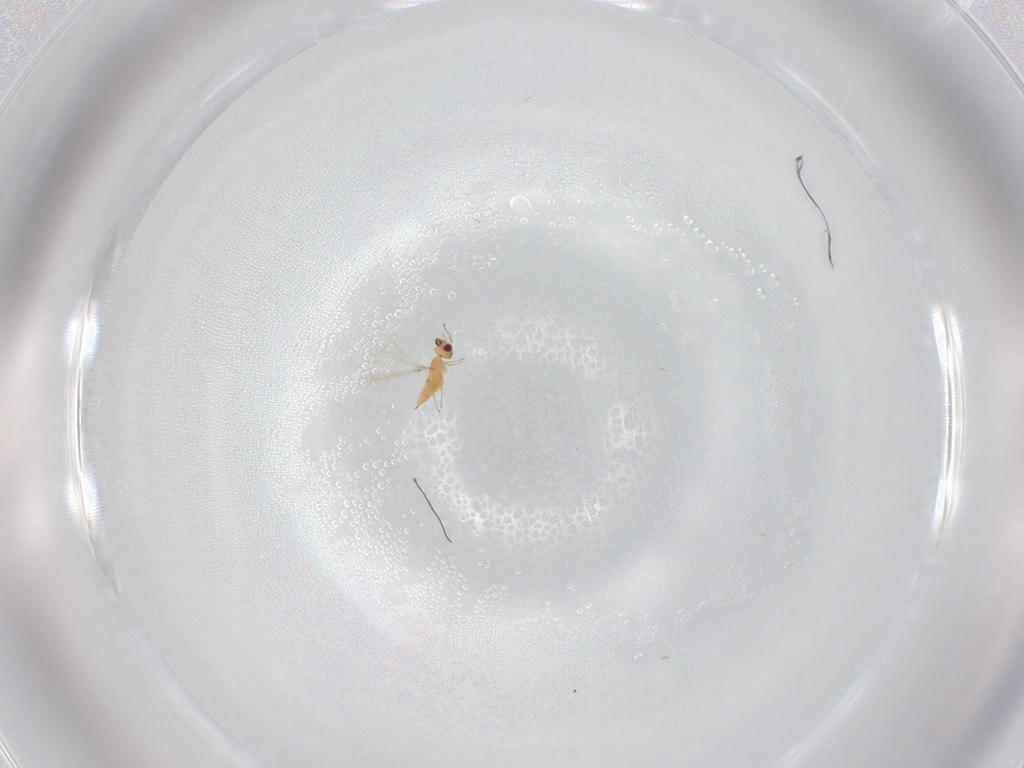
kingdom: Animalia
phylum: Arthropoda
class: Insecta
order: Hymenoptera
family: Mymaridae
